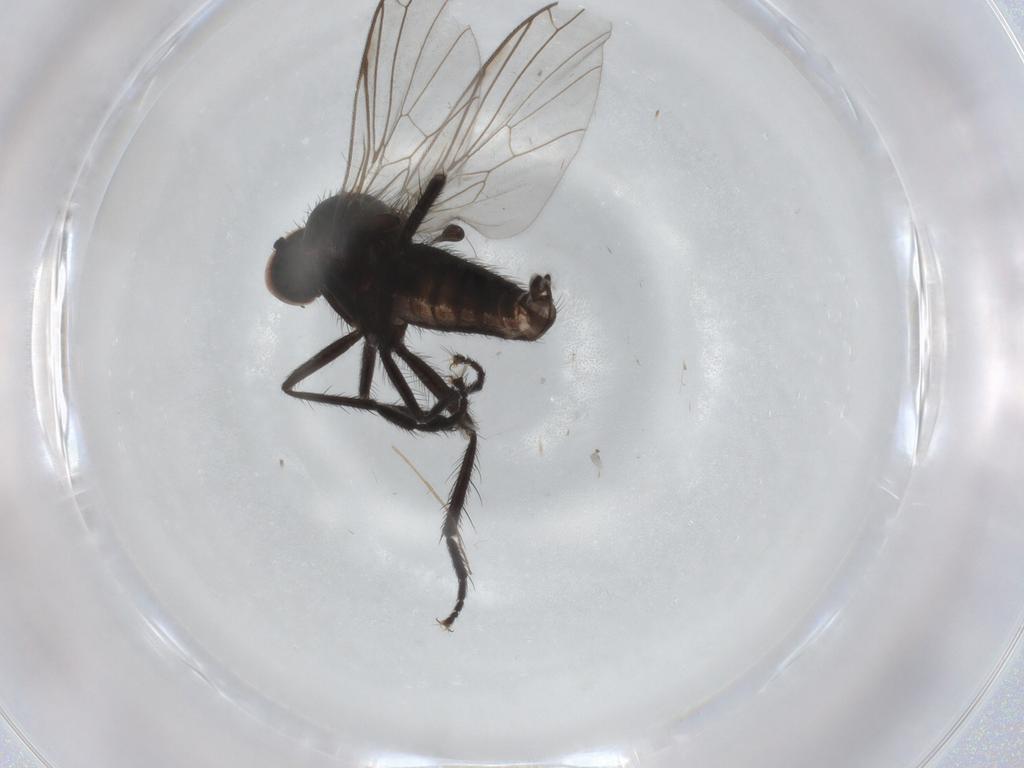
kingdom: Animalia
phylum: Arthropoda
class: Insecta
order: Diptera
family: Empididae
